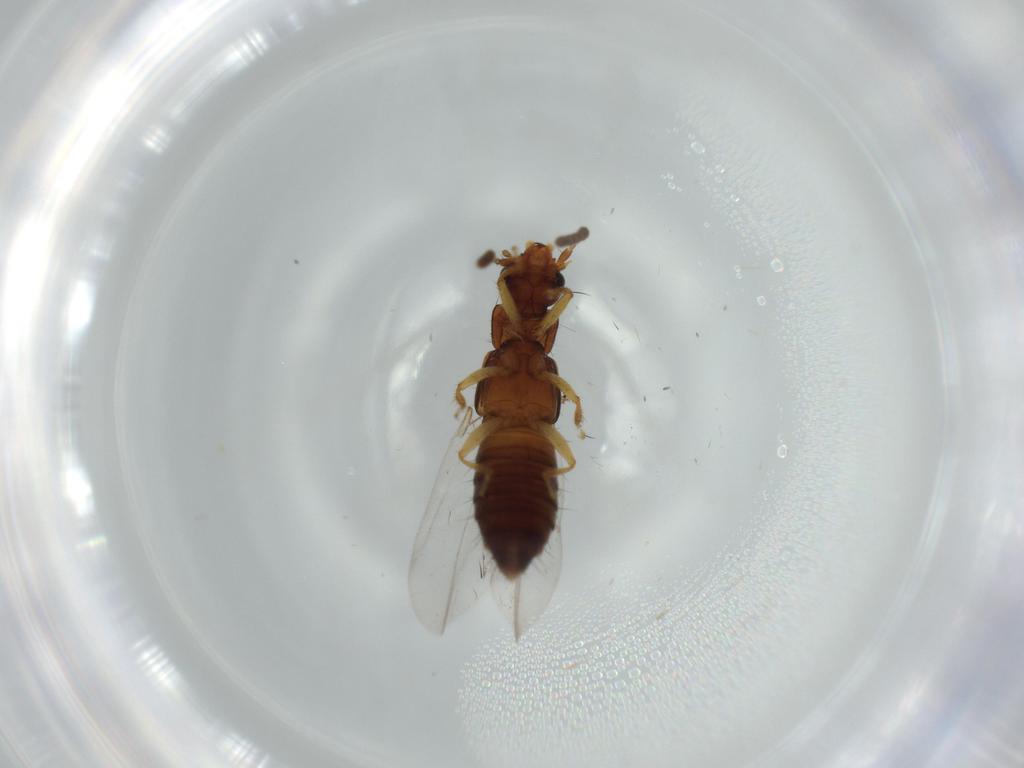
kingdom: Animalia
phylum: Arthropoda
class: Insecta
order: Coleoptera
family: Staphylinidae
